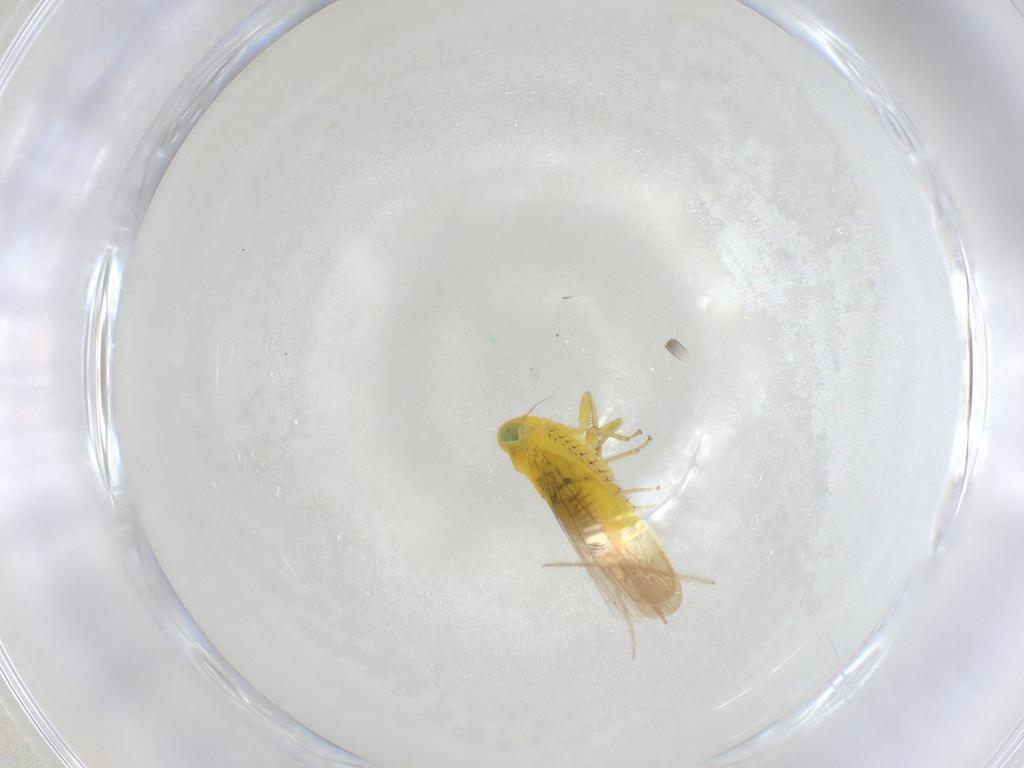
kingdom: Animalia
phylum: Arthropoda
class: Insecta
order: Hemiptera
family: Cicadellidae
